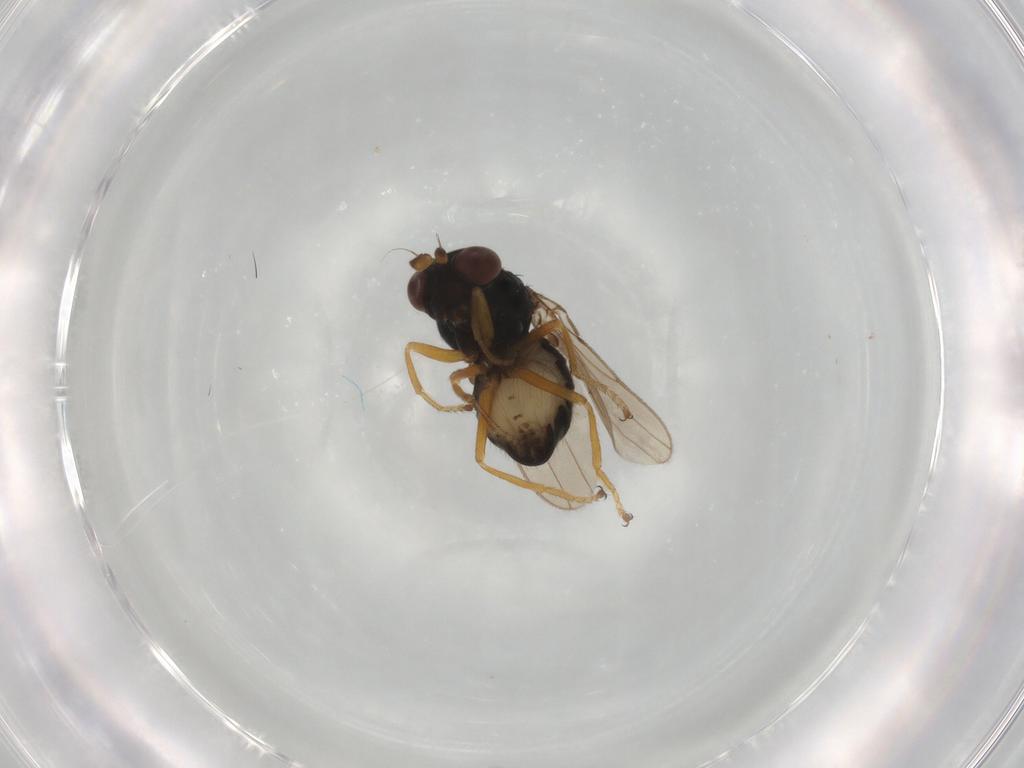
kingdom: Animalia
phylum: Arthropoda
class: Insecta
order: Diptera
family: Ephydridae
